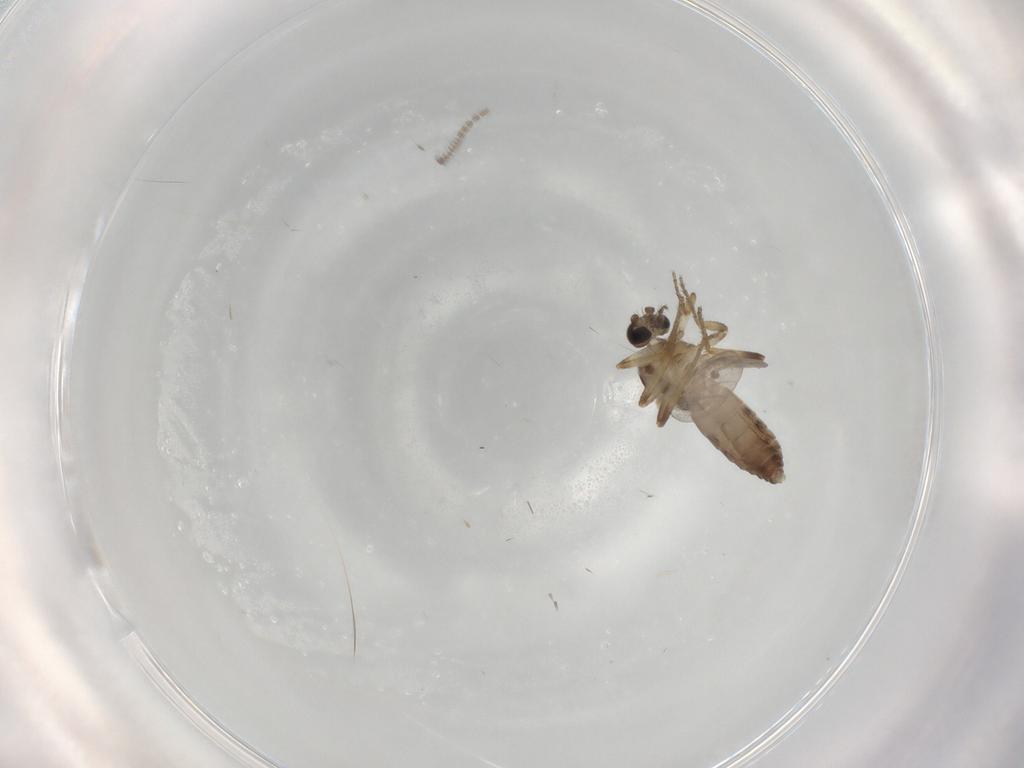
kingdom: Animalia
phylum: Arthropoda
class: Insecta
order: Diptera
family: Ceratopogonidae
